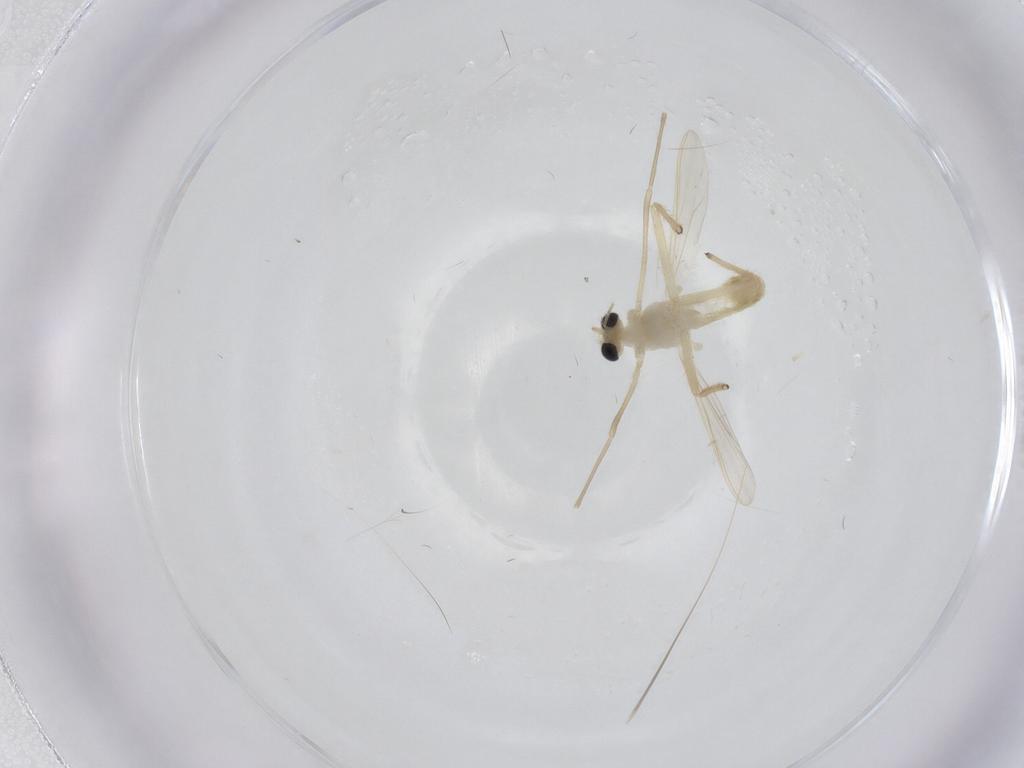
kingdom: Animalia
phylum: Arthropoda
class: Insecta
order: Diptera
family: Chironomidae
